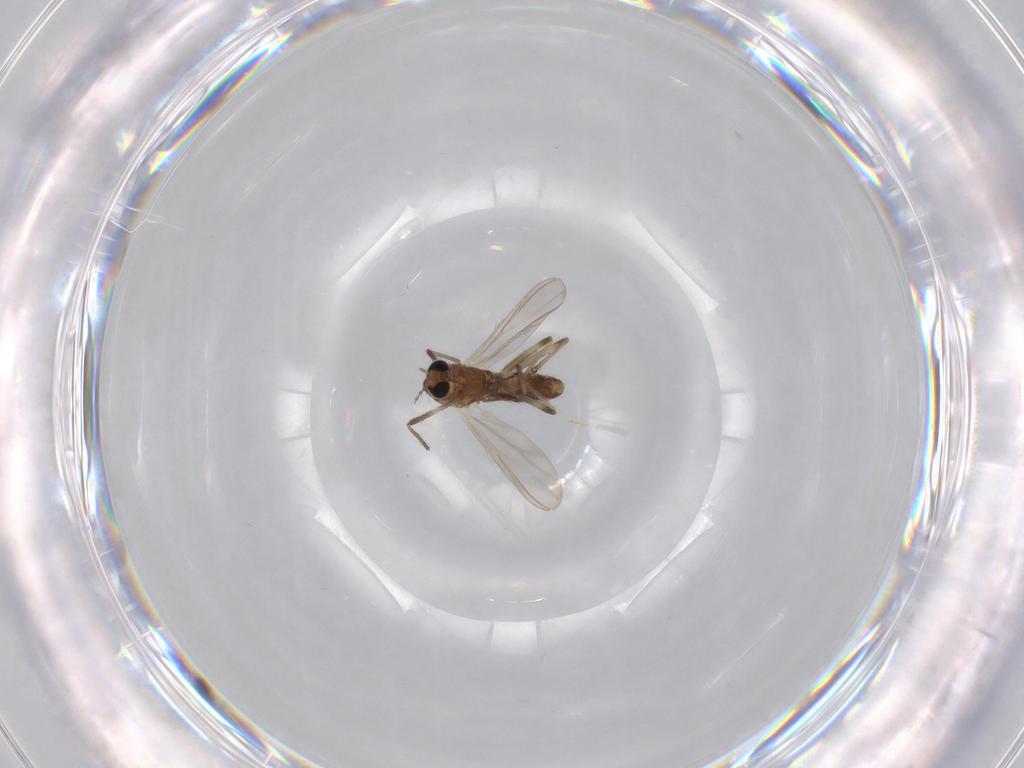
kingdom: Animalia
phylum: Arthropoda
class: Insecta
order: Diptera
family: Chironomidae
